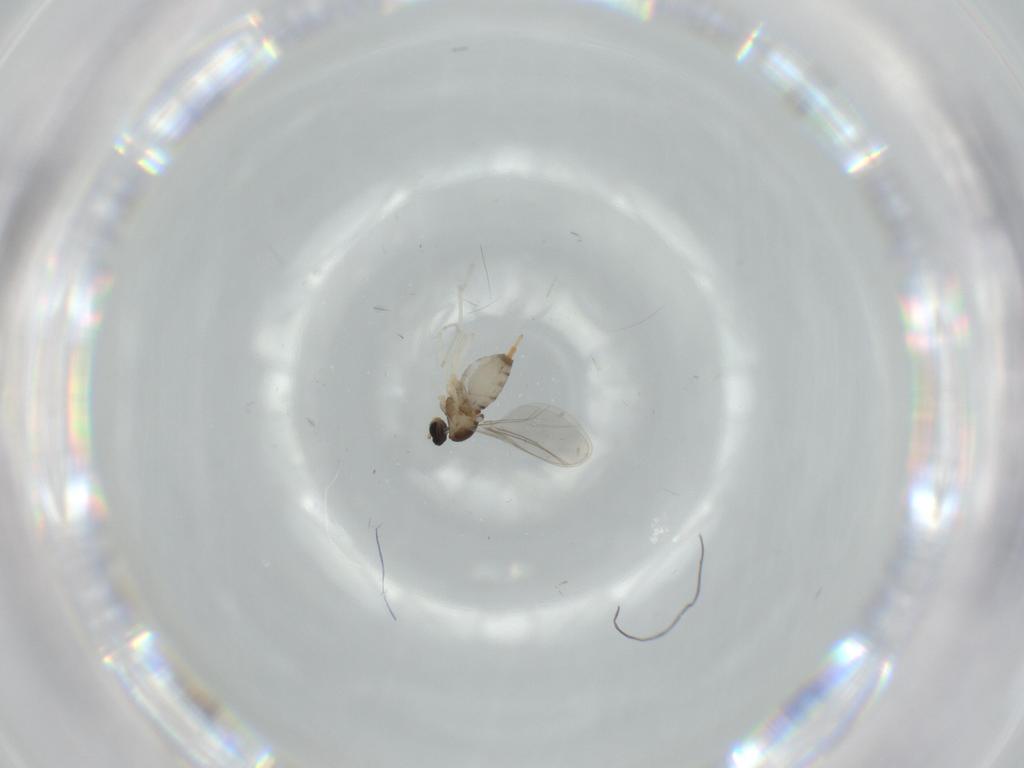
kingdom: Animalia
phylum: Arthropoda
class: Insecta
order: Diptera
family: Cecidomyiidae
